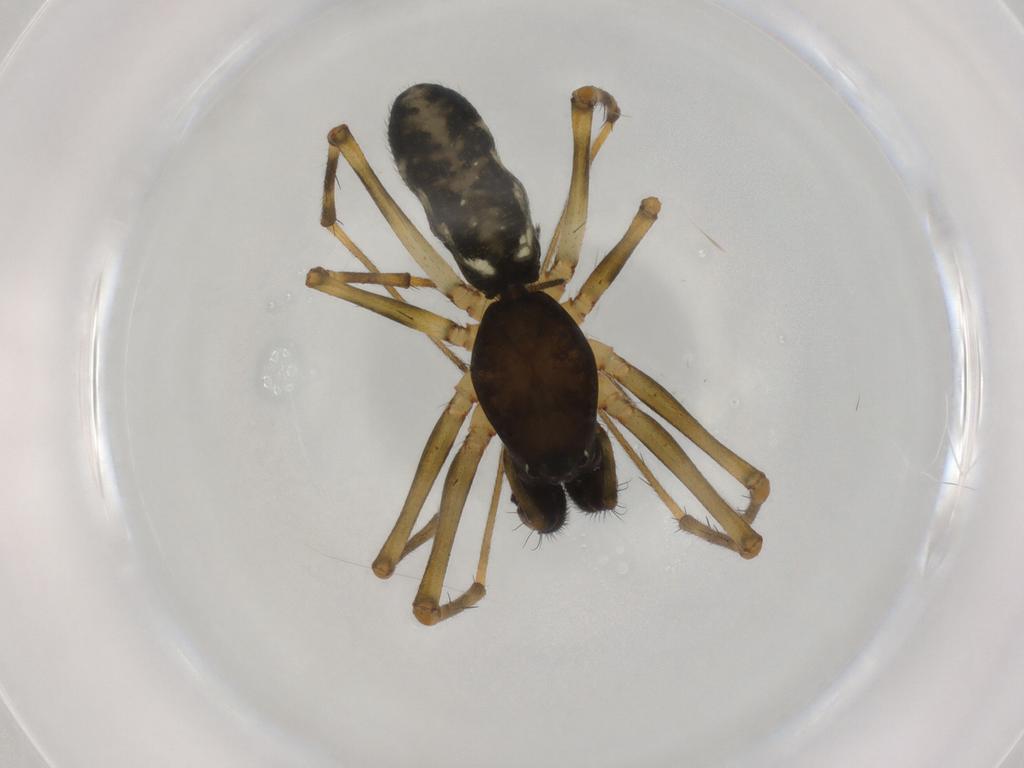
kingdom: Animalia
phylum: Arthropoda
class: Arachnida
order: Araneae
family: Theridiidae
